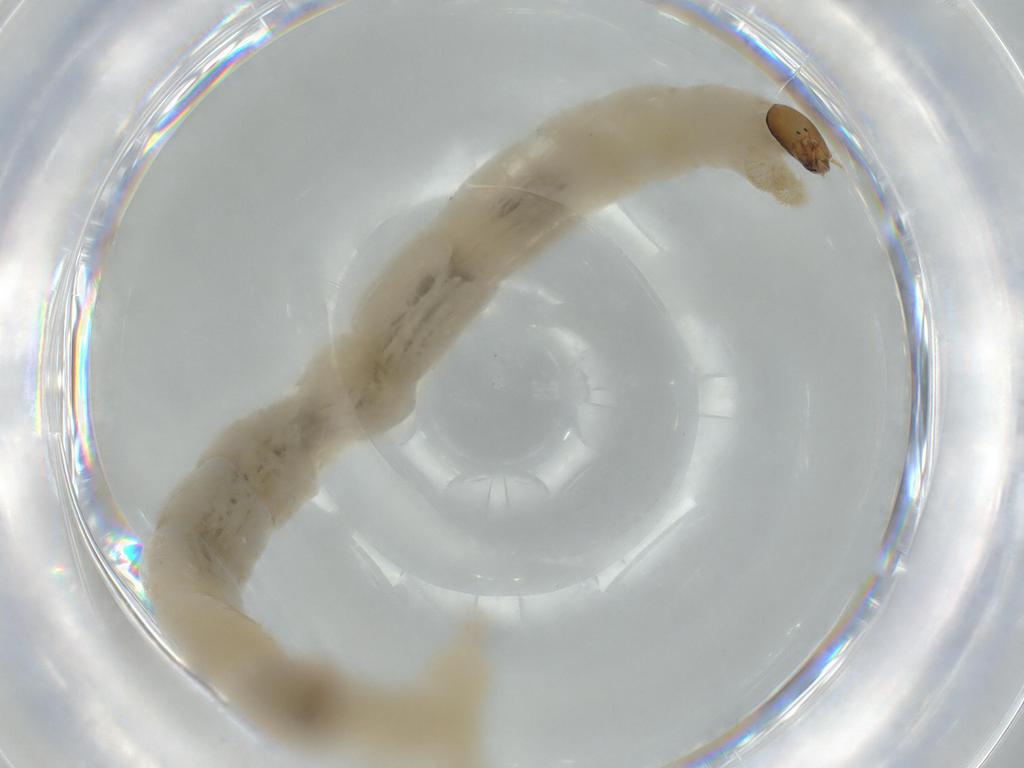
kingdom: Animalia
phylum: Arthropoda
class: Insecta
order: Diptera
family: Chironomidae
